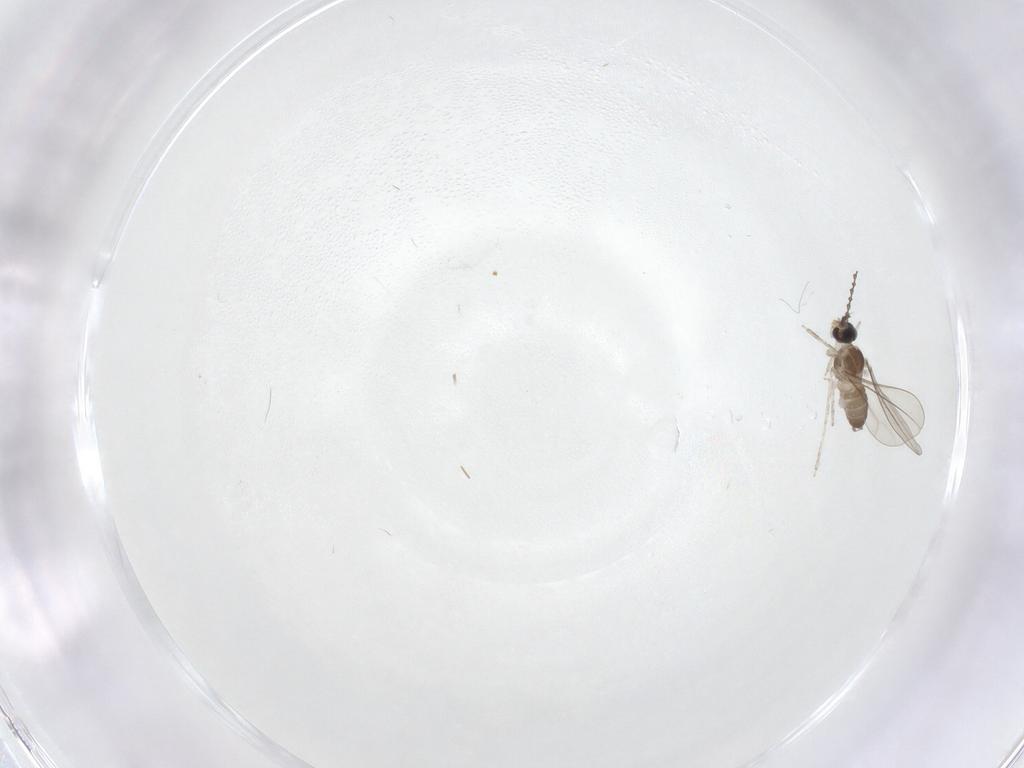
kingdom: Animalia
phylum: Arthropoda
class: Insecta
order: Diptera
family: Cecidomyiidae
